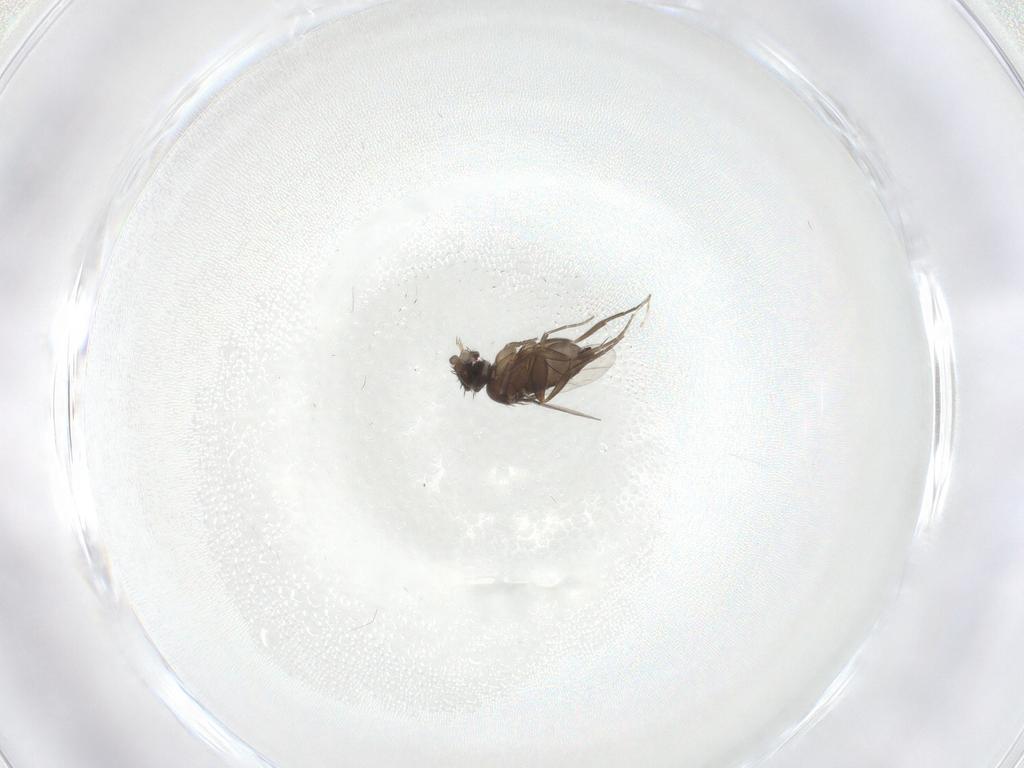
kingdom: Animalia
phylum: Arthropoda
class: Insecta
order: Diptera
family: Phoridae
